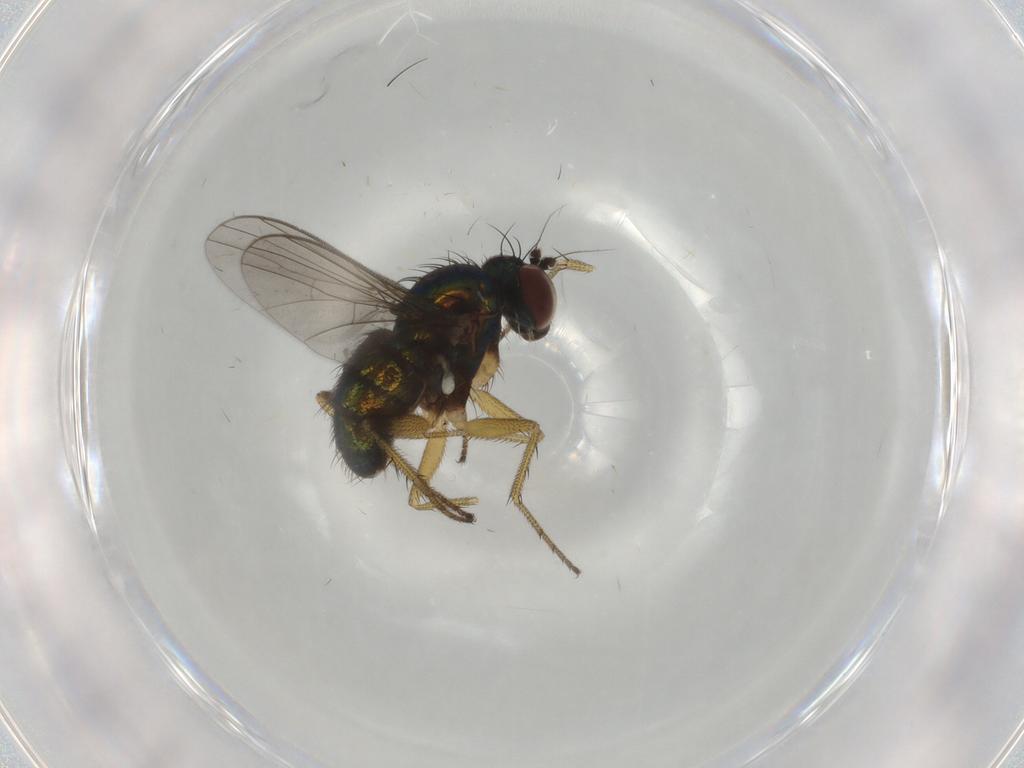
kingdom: Animalia
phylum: Arthropoda
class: Insecta
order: Diptera
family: Dolichopodidae
